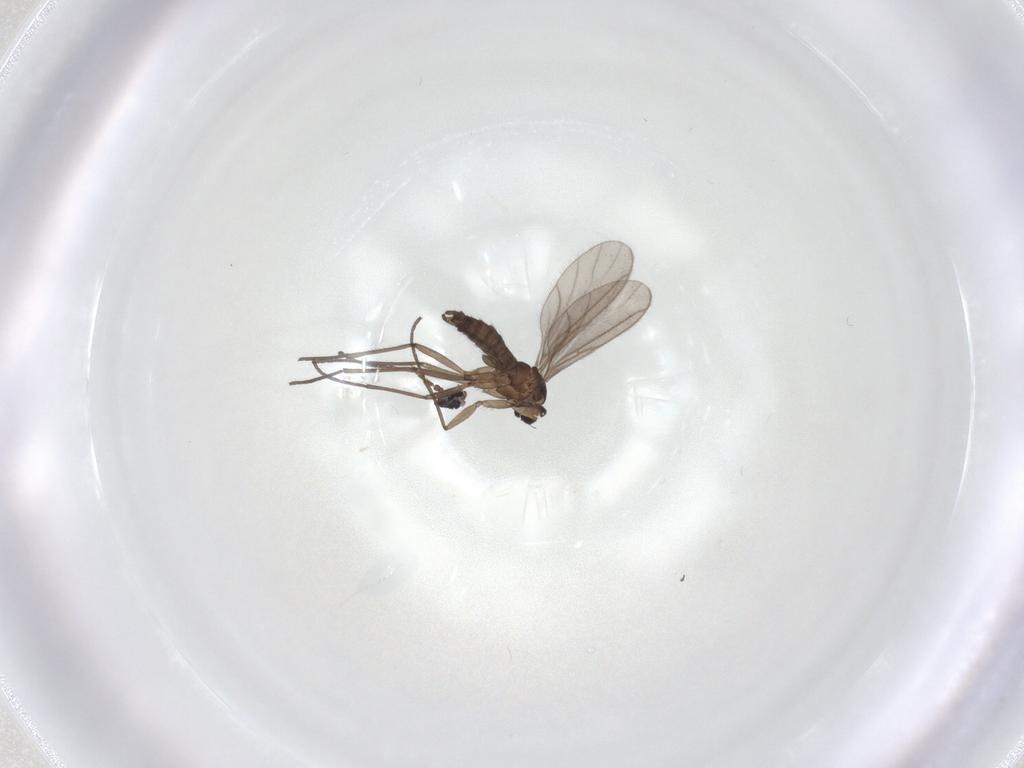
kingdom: Animalia
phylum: Arthropoda
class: Insecta
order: Diptera
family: Sciaridae
